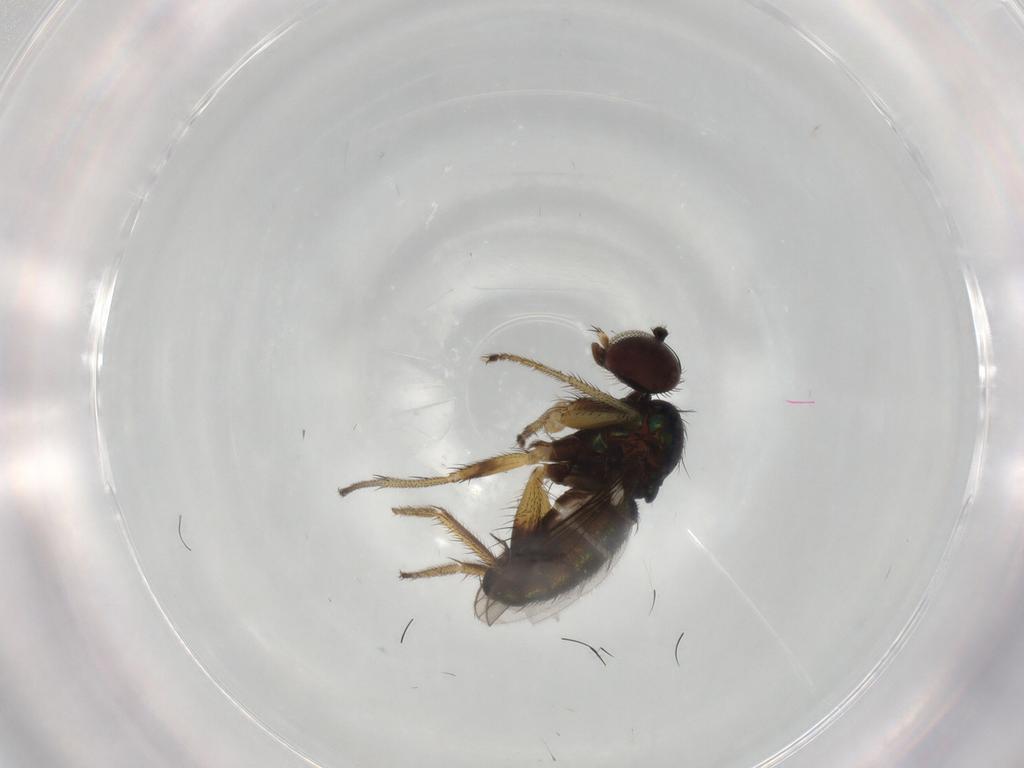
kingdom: Animalia
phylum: Arthropoda
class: Insecta
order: Diptera
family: Dolichopodidae
